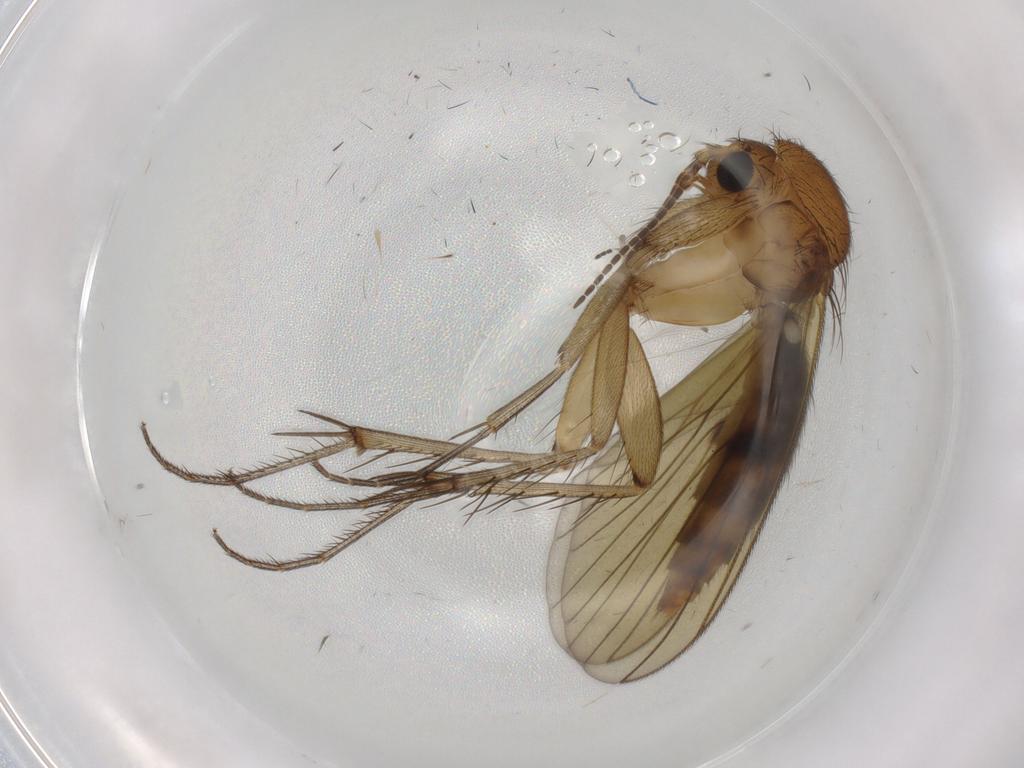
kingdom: Animalia
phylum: Arthropoda
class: Insecta
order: Diptera
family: Mycetophilidae
